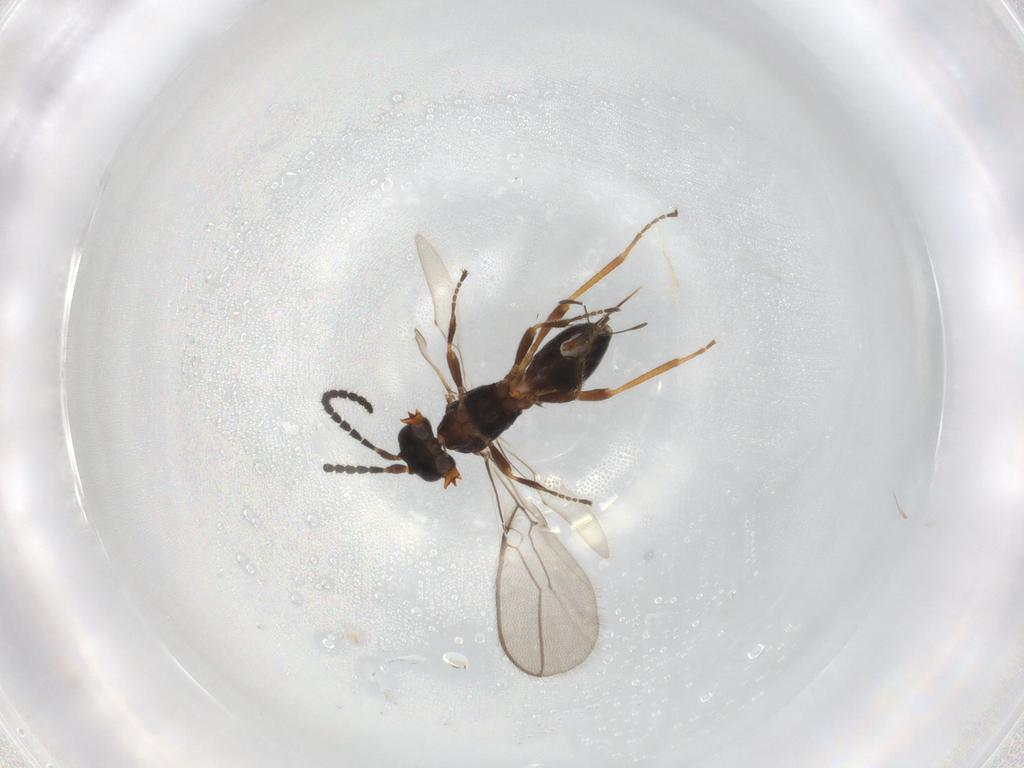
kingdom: Animalia
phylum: Arthropoda
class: Insecta
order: Hymenoptera
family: Braconidae
